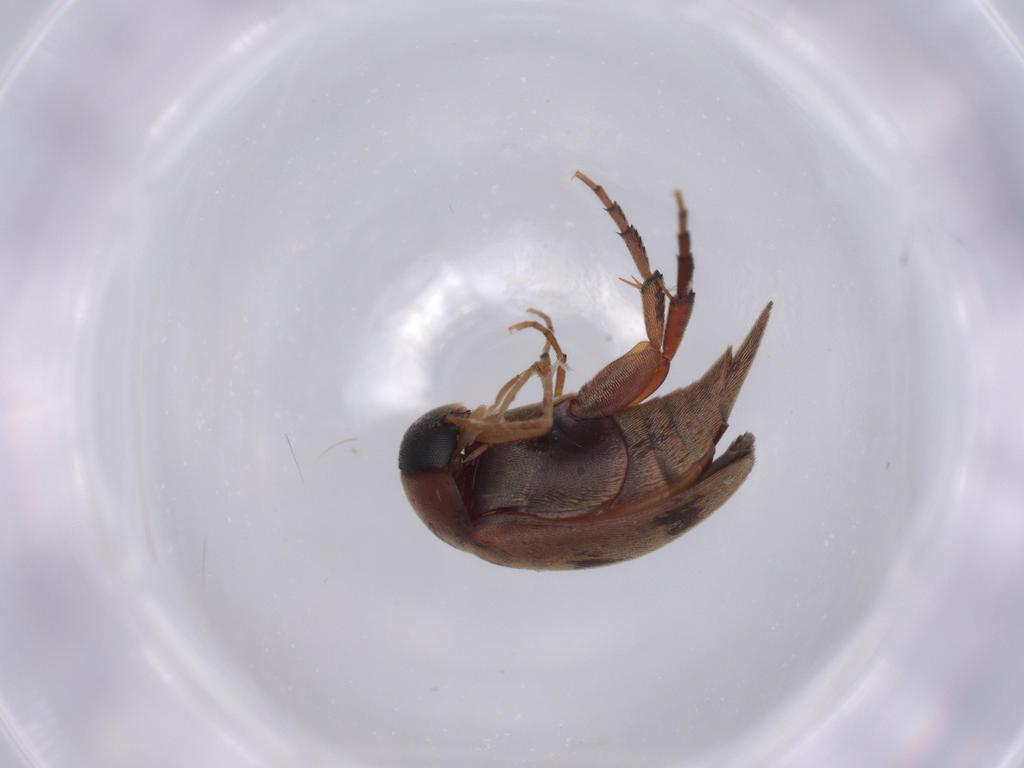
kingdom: Animalia
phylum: Arthropoda
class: Insecta
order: Coleoptera
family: Lampyridae
